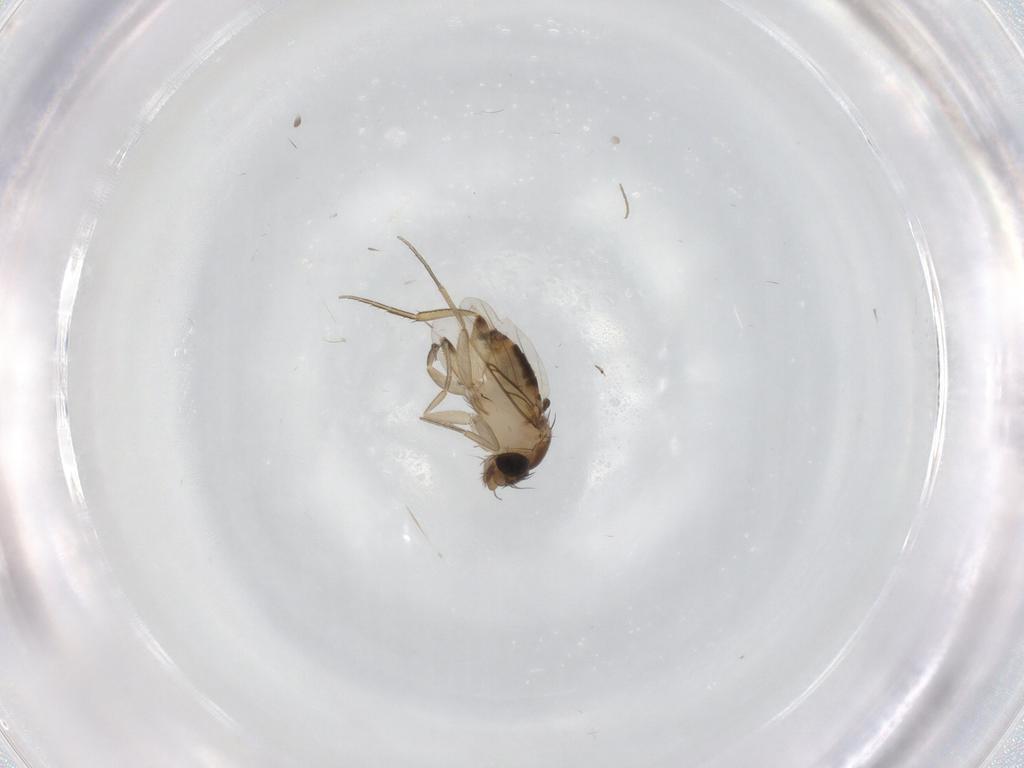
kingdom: Animalia
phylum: Arthropoda
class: Insecta
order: Diptera
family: Phoridae
